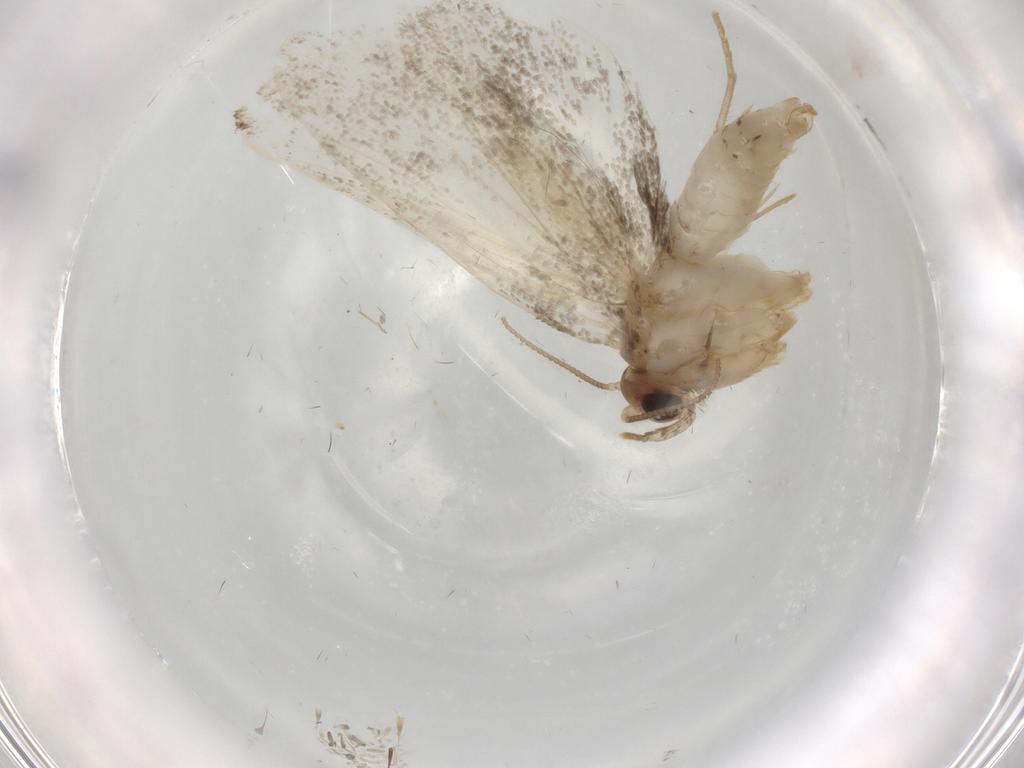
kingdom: Animalia
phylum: Arthropoda
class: Insecta
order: Lepidoptera
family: Psychidae
